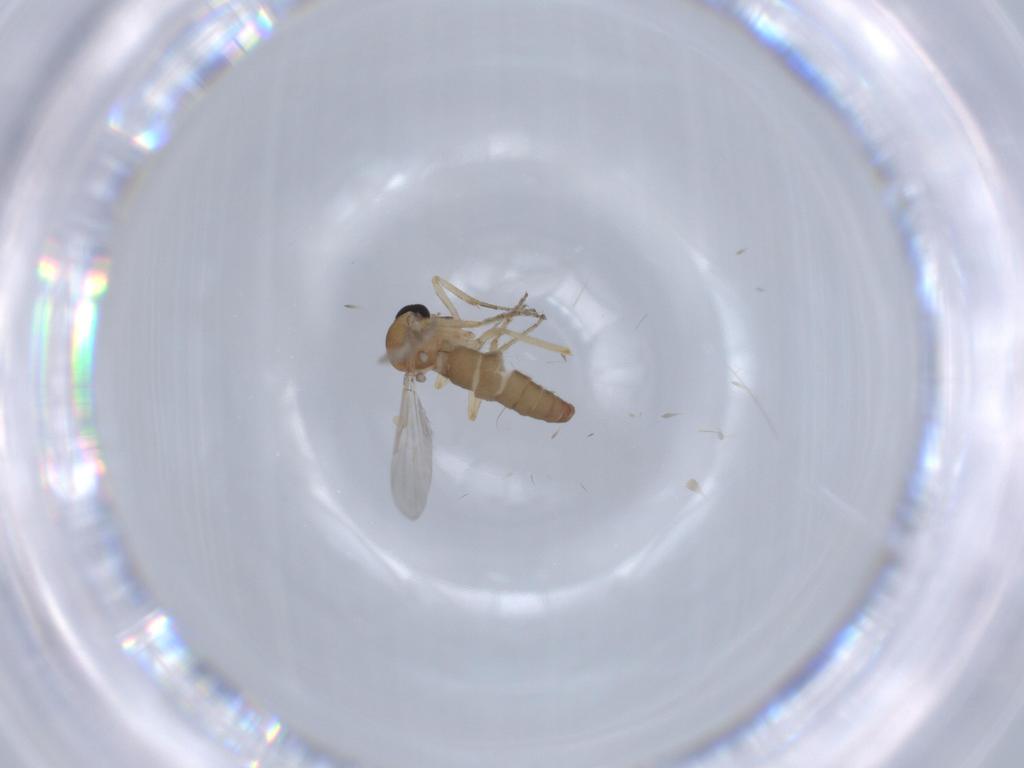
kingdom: Animalia
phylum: Arthropoda
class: Insecta
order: Diptera
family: Ceratopogonidae
